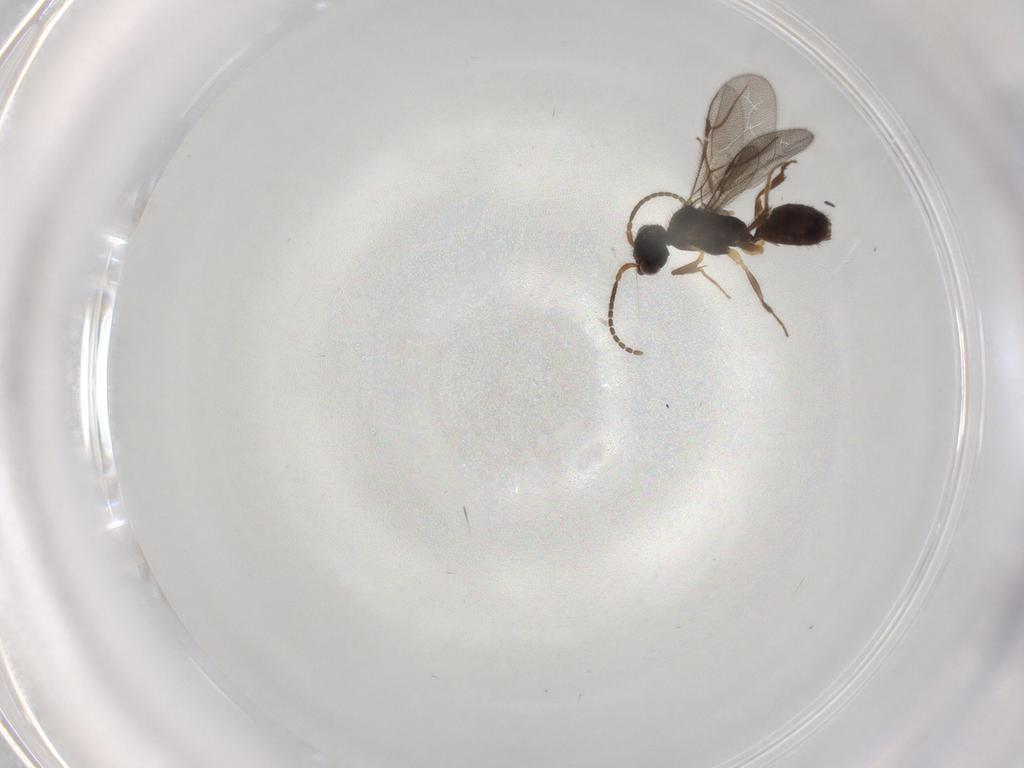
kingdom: Animalia
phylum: Arthropoda
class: Insecta
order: Hymenoptera
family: Bethylidae
